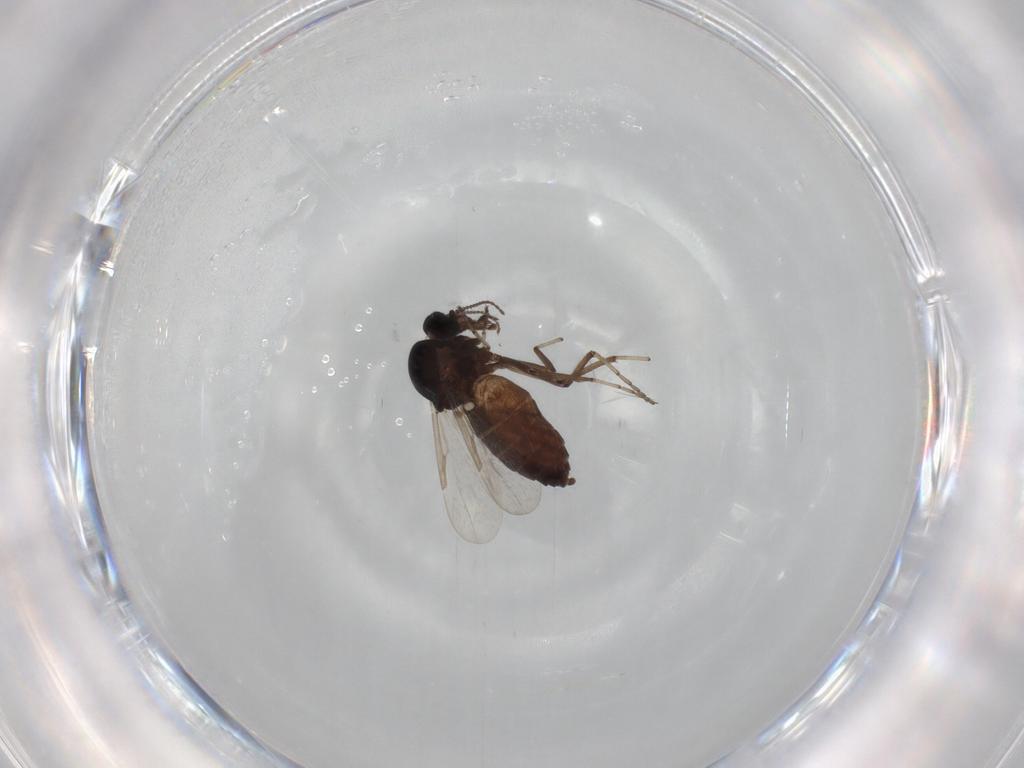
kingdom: Animalia
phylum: Arthropoda
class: Insecta
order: Diptera
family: Ceratopogonidae
